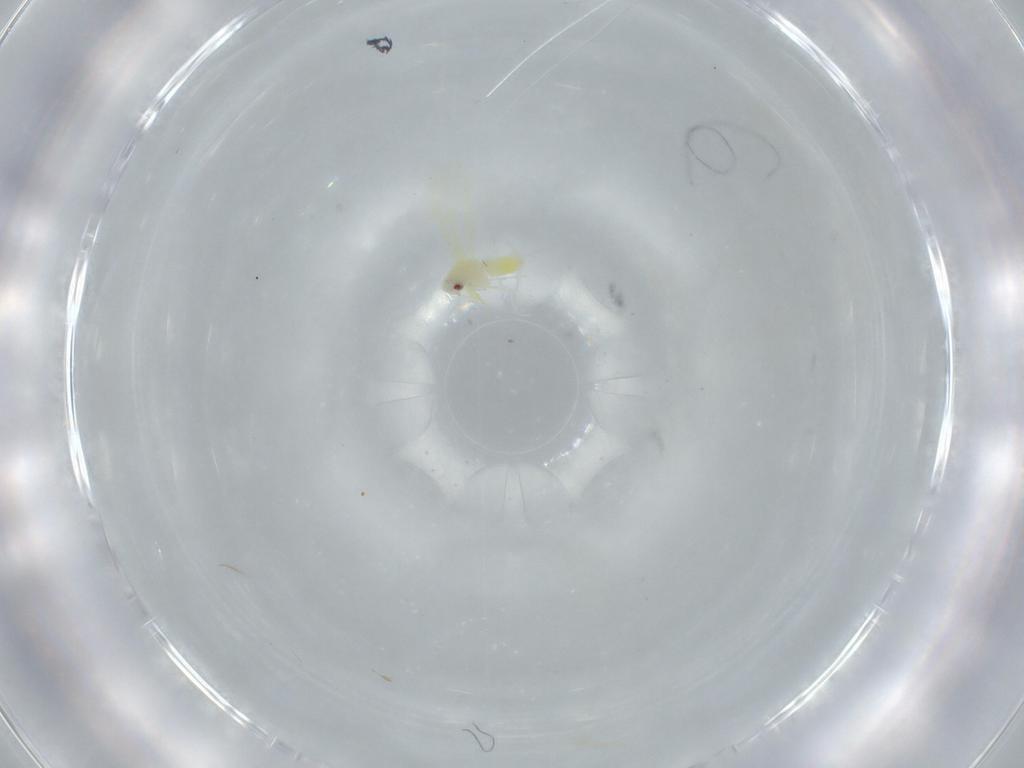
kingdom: Animalia
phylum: Arthropoda
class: Insecta
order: Hemiptera
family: Aleyrodidae
